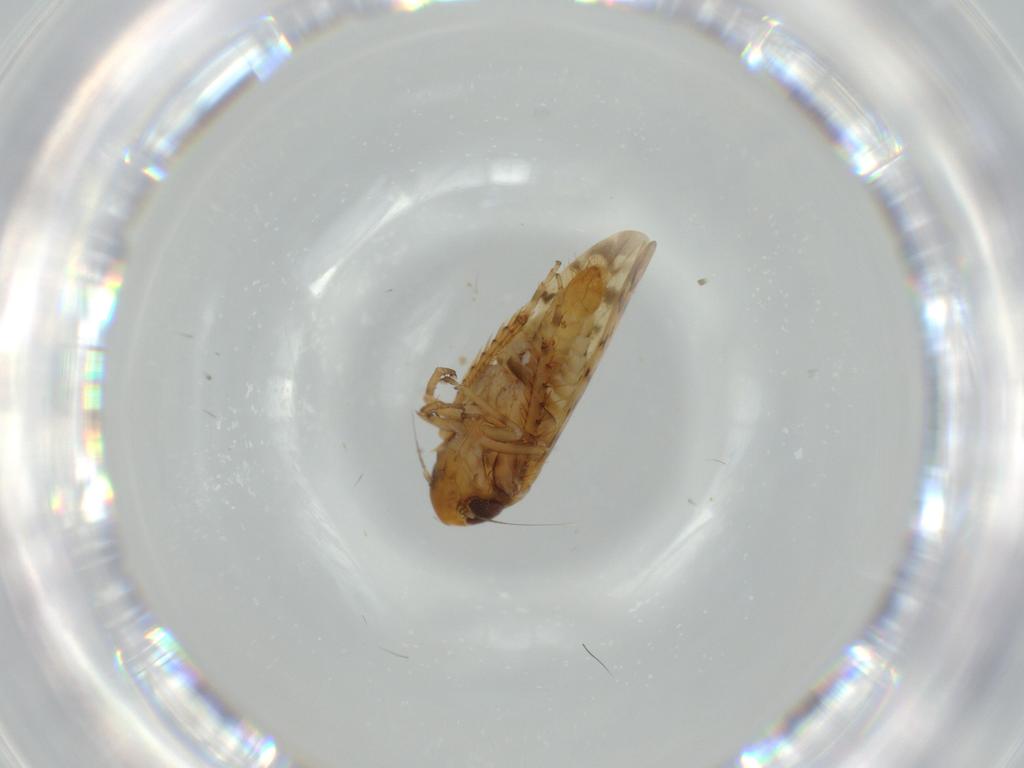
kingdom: Animalia
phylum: Arthropoda
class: Insecta
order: Hemiptera
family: Cicadellidae
